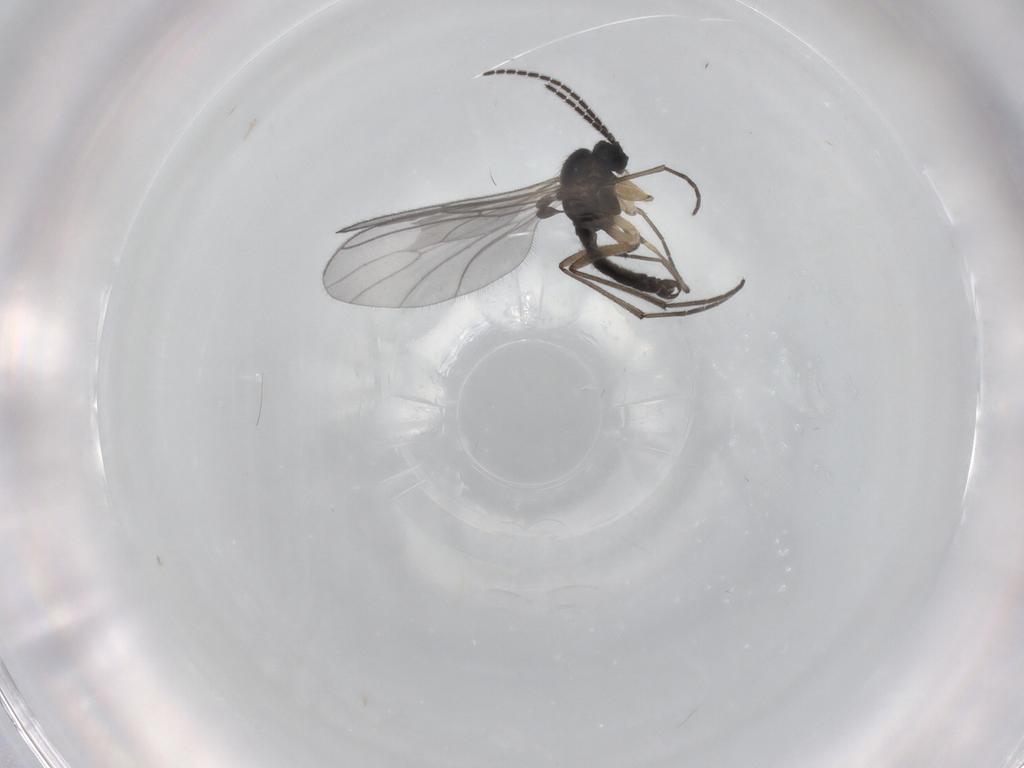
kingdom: Animalia
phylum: Arthropoda
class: Insecta
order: Diptera
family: Sciaridae
